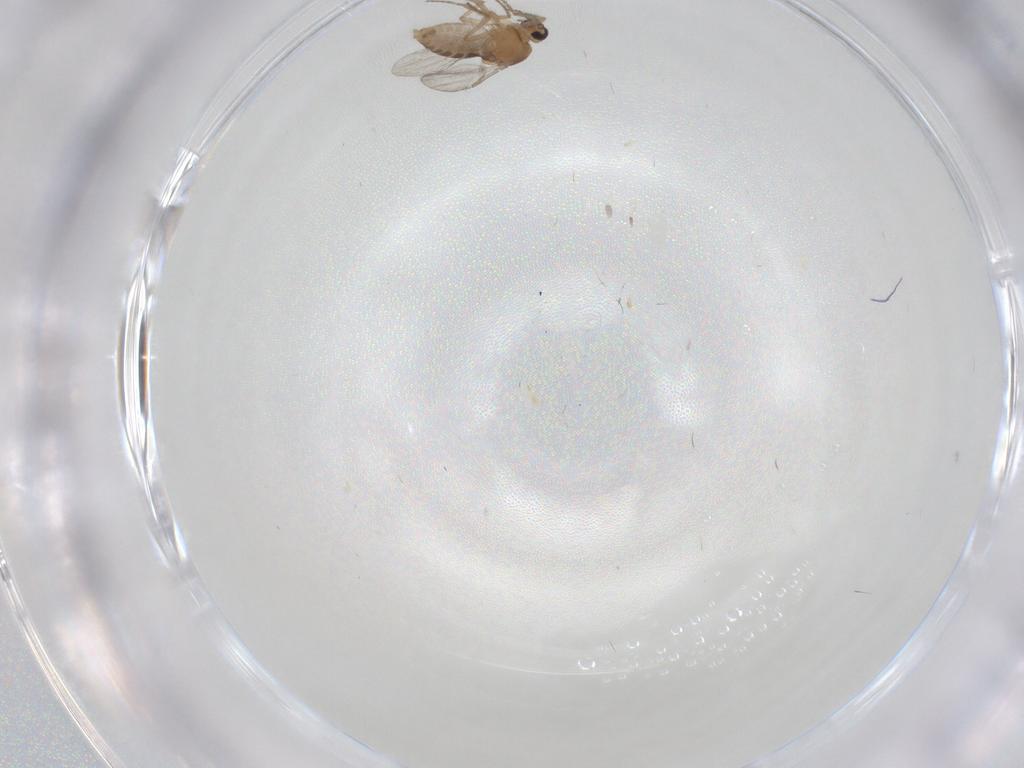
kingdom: Animalia
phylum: Arthropoda
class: Insecta
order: Diptera
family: Ceratopogonidae
